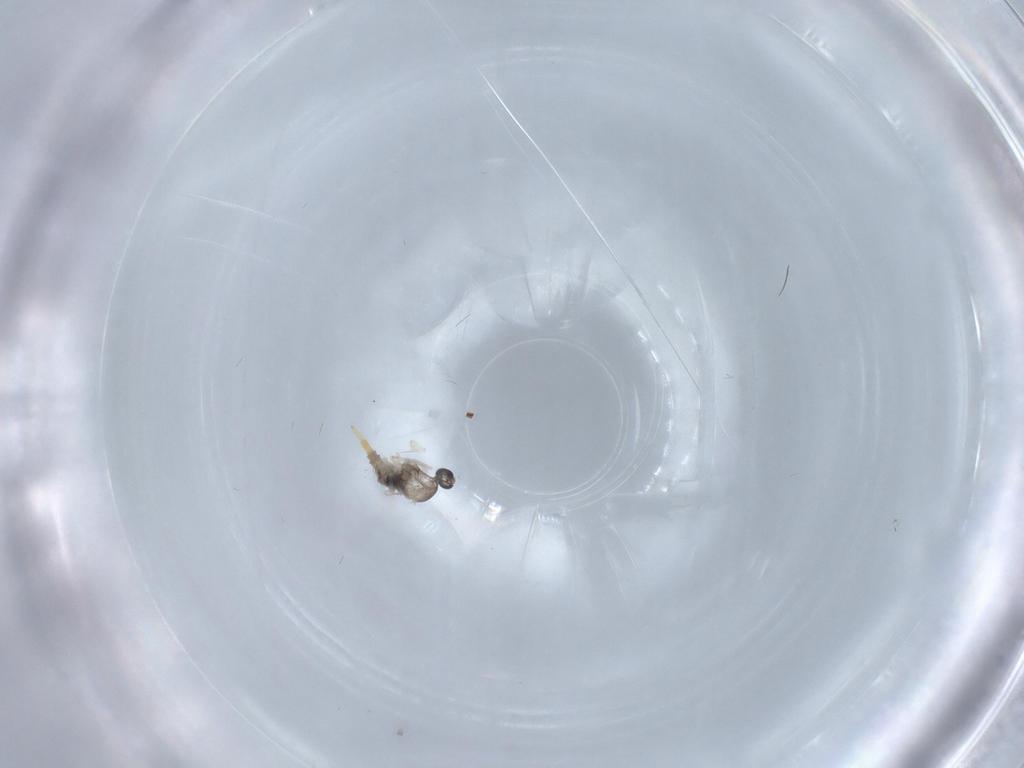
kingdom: Animalia
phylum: Arthropoda
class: Insecta
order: Diptera
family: Cecidomyiidae
